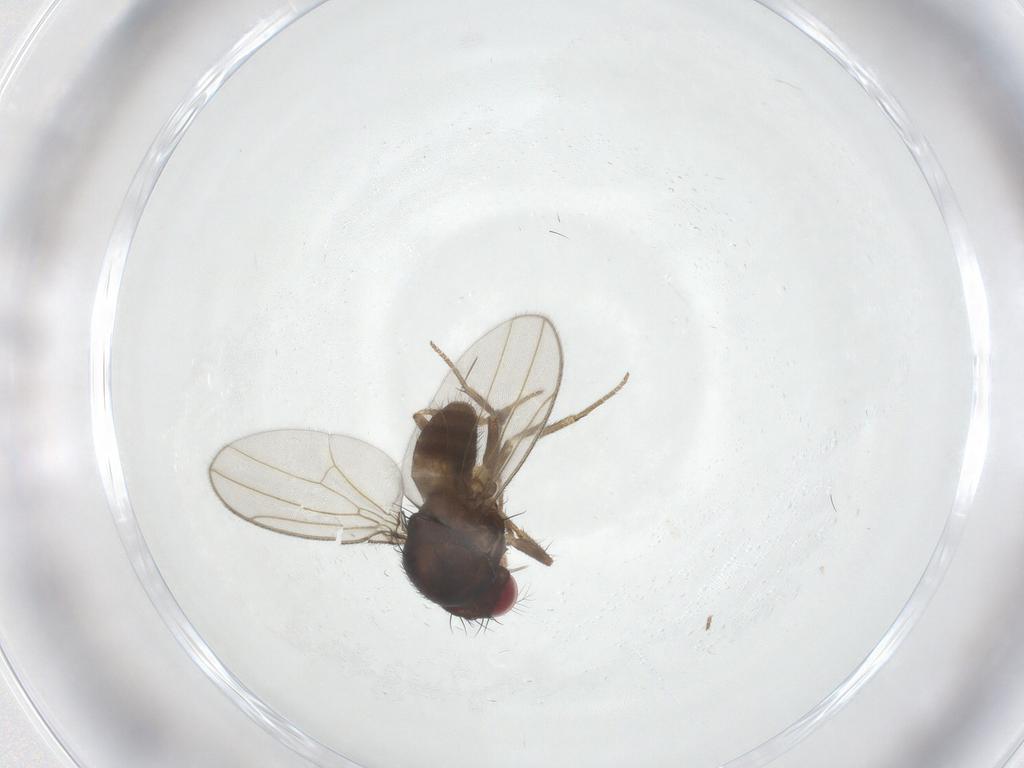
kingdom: Animalia
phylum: Arthropoda
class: Insecta
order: Diptera
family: Drosophilidae
